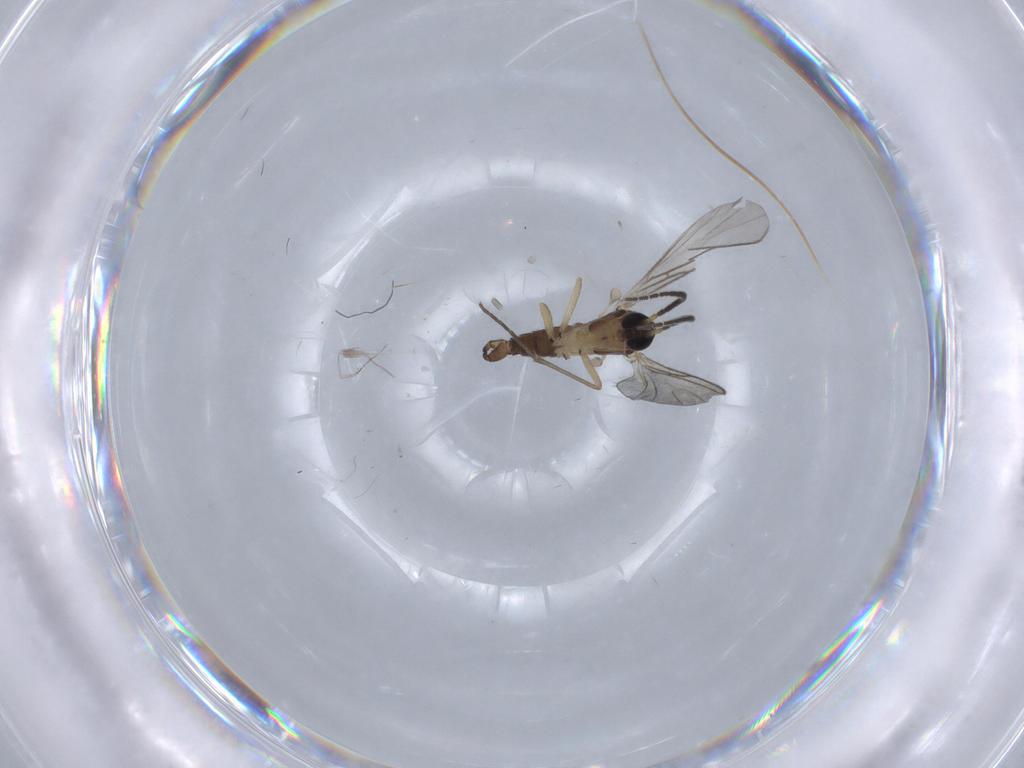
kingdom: Animalia
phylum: Arthropoda
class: Insecta
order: Diptera
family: Sciaridae
